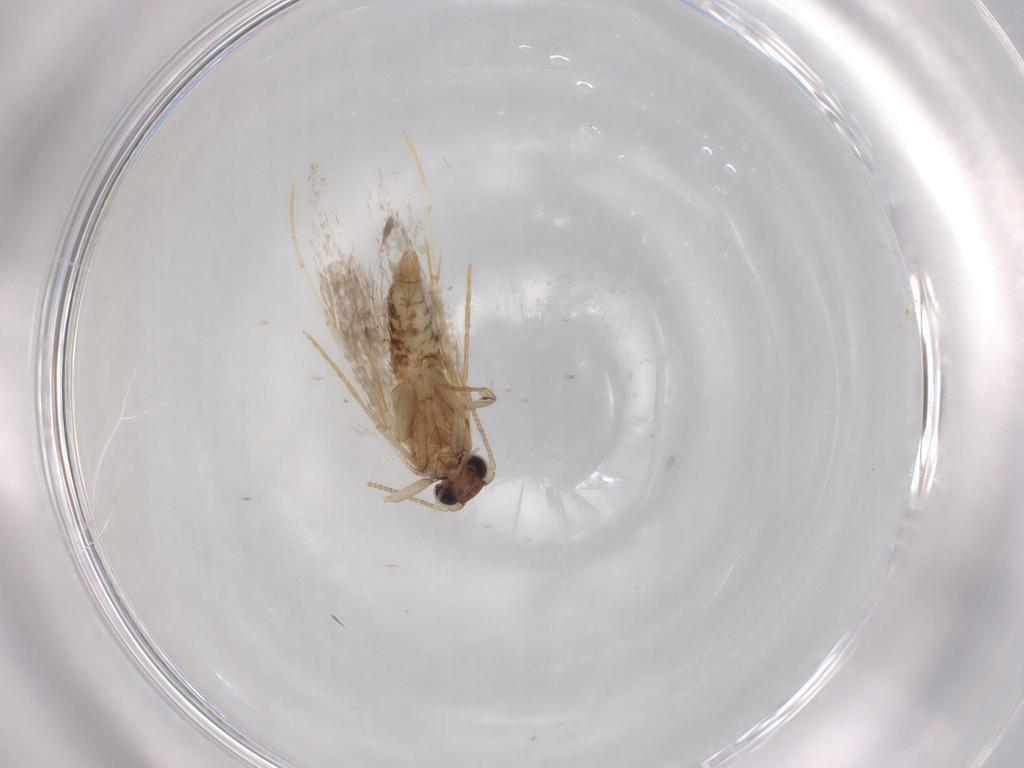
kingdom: Animalia
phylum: Arthropoda
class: Insecta
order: Lepidoptera
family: Tineidae
